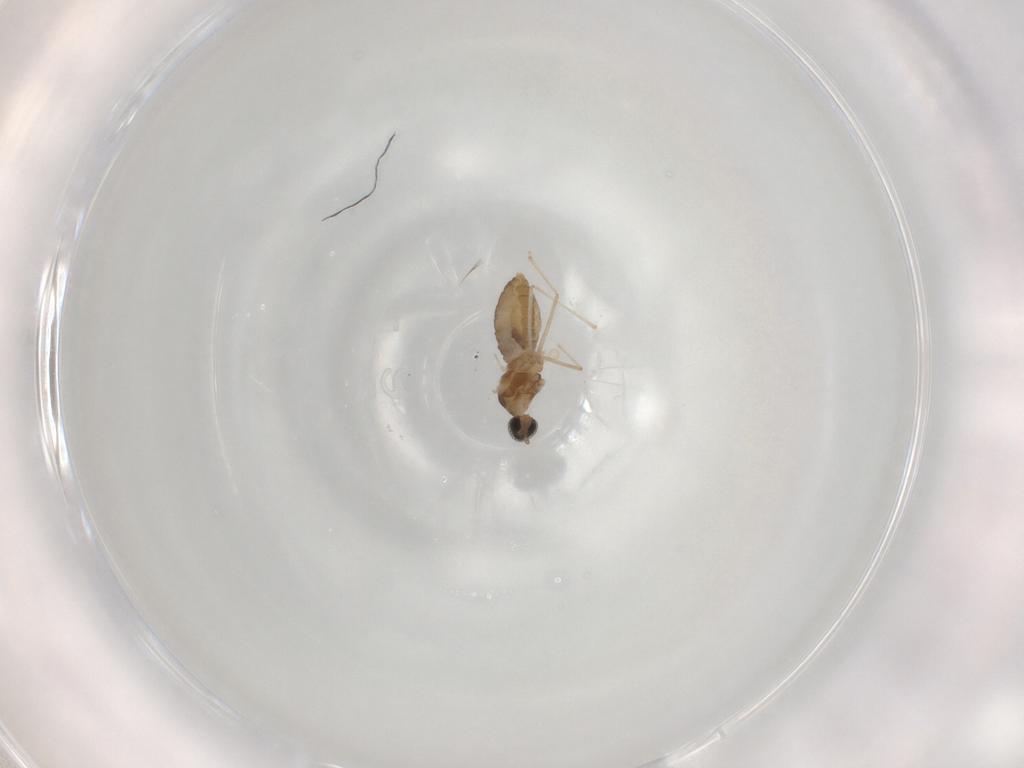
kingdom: Animalia
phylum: Arthropoda
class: Insecta
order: Diptera
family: Cecidomyiidae
